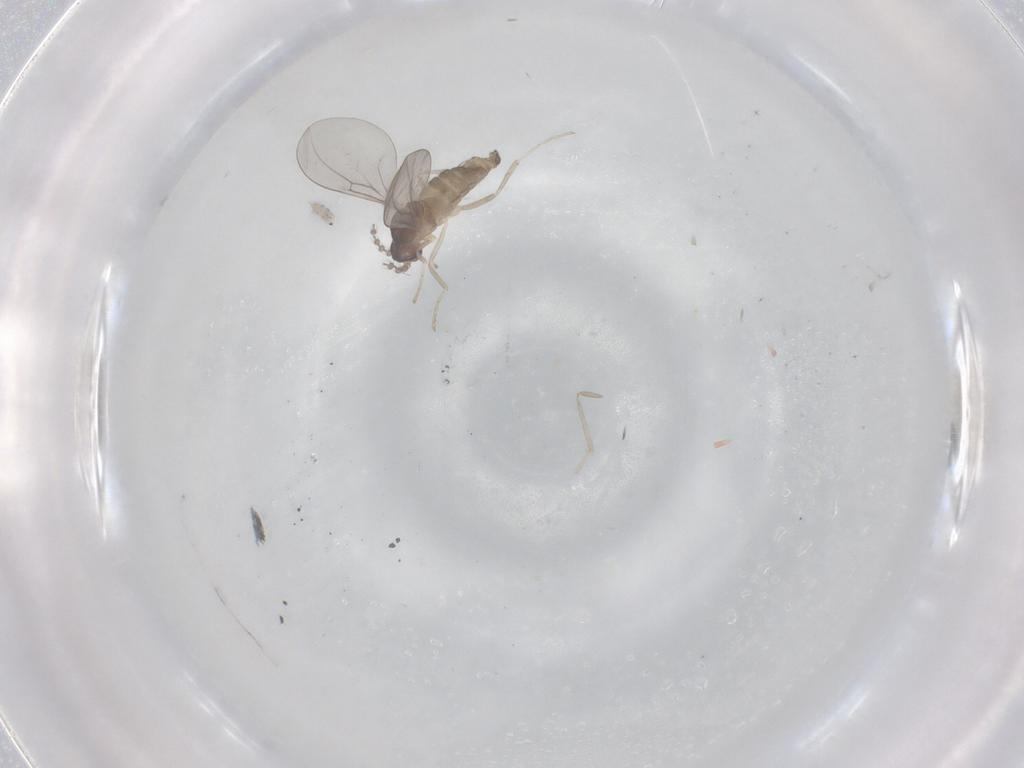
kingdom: Animalia
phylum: Arthropoda
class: Insecta
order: Diptera
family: Cecidomyiidae
